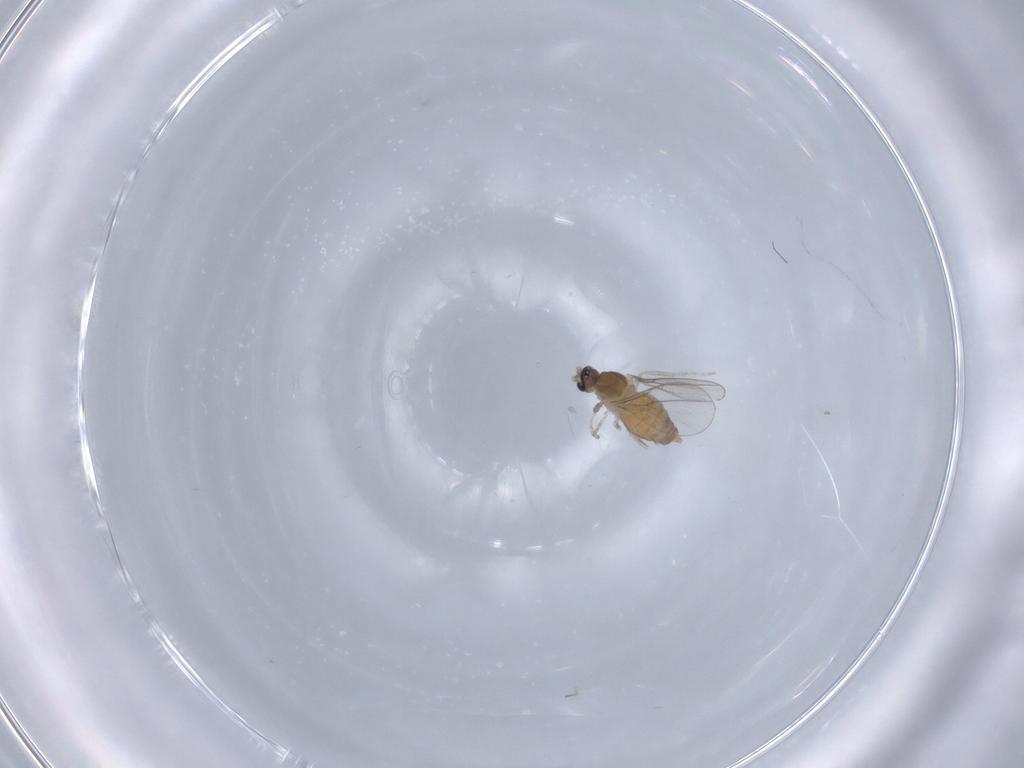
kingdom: Animalia
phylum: Arthropoda
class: Insecta
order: Diptera
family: Cecidomyiidae
